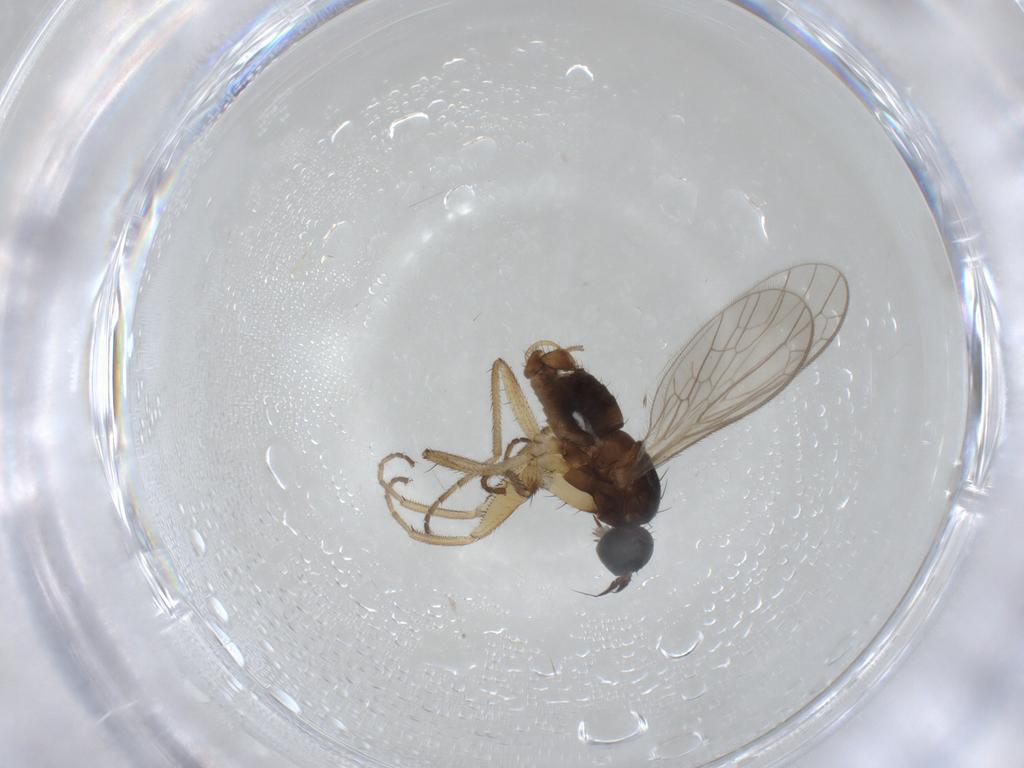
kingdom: Animalia
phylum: Arthropoda
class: Insecta
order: Diptera
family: Empididae
